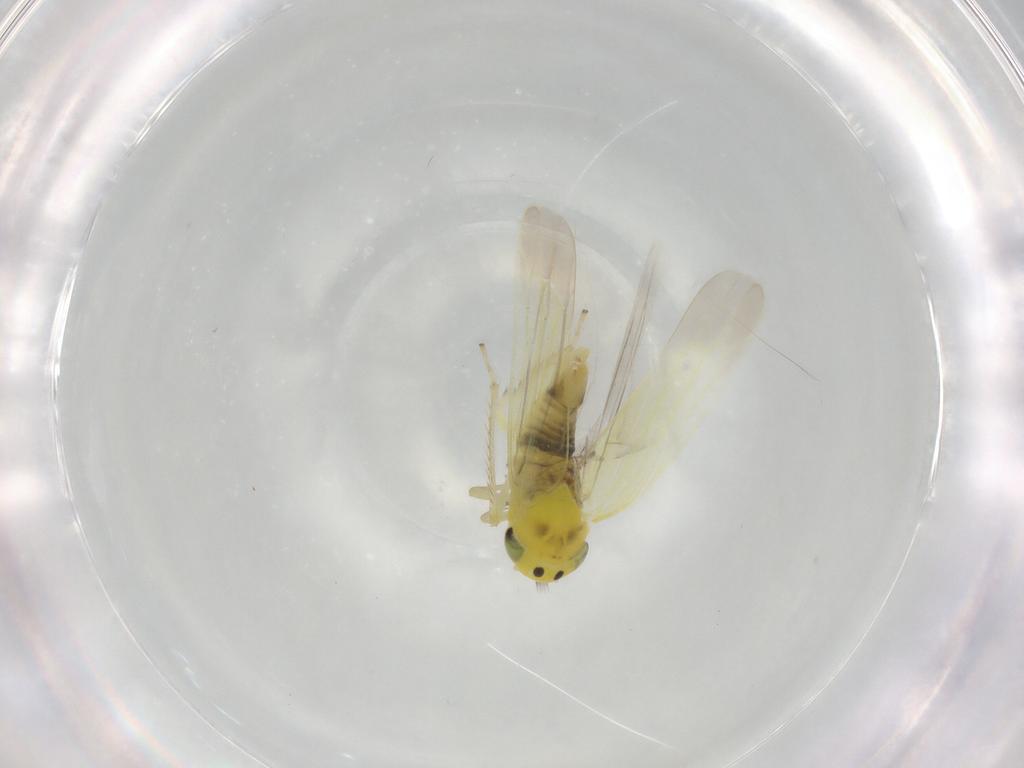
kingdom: Animalia
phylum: Arthropoda
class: Insecta
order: Hemiptera
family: Cicadellidae
